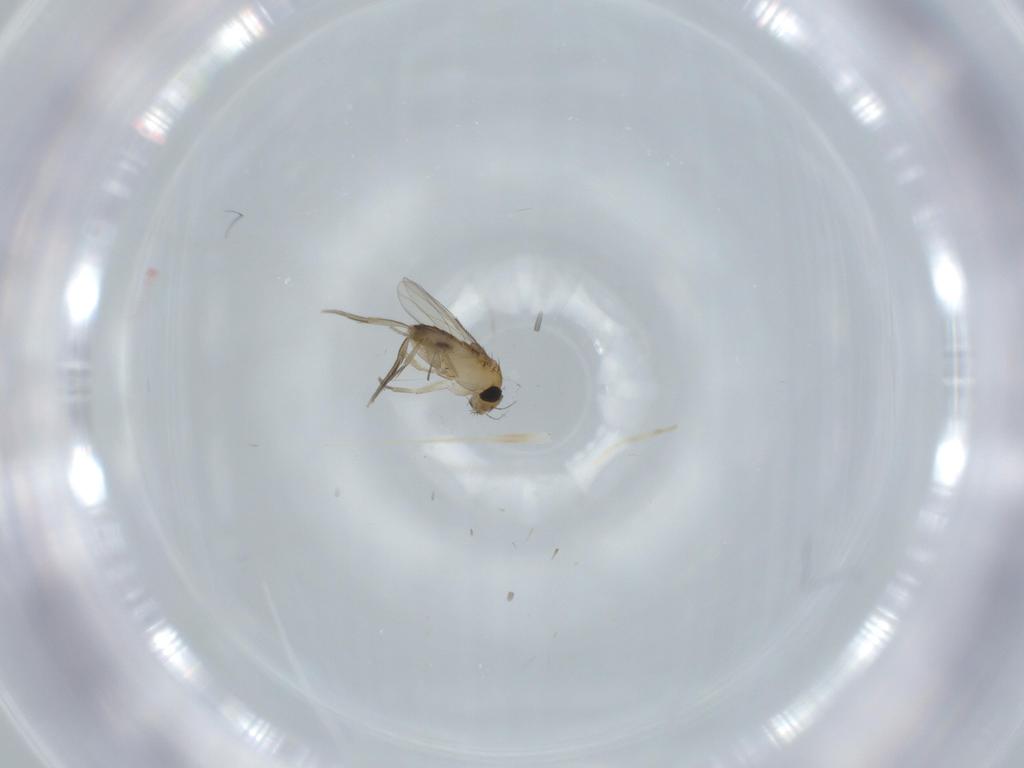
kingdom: Animalia
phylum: Arthropoda
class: Insecta
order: Diptera
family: Phoridae
